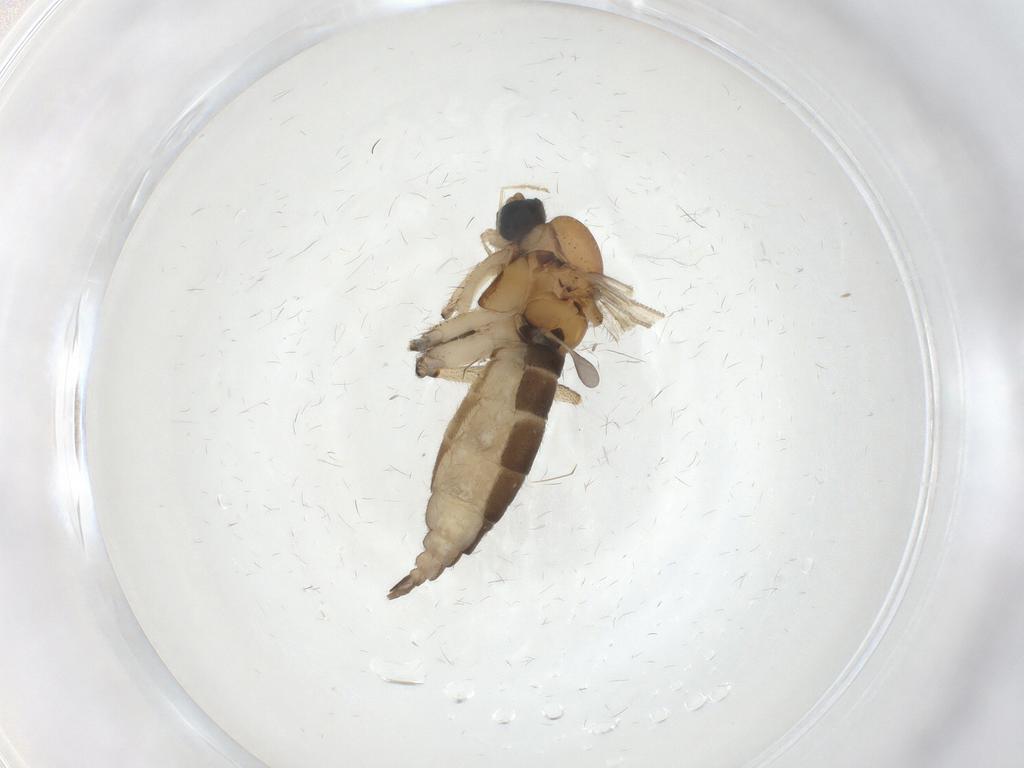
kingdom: Animalia
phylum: Arthropoda
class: Insecta
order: Diptera
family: Sciaridae
